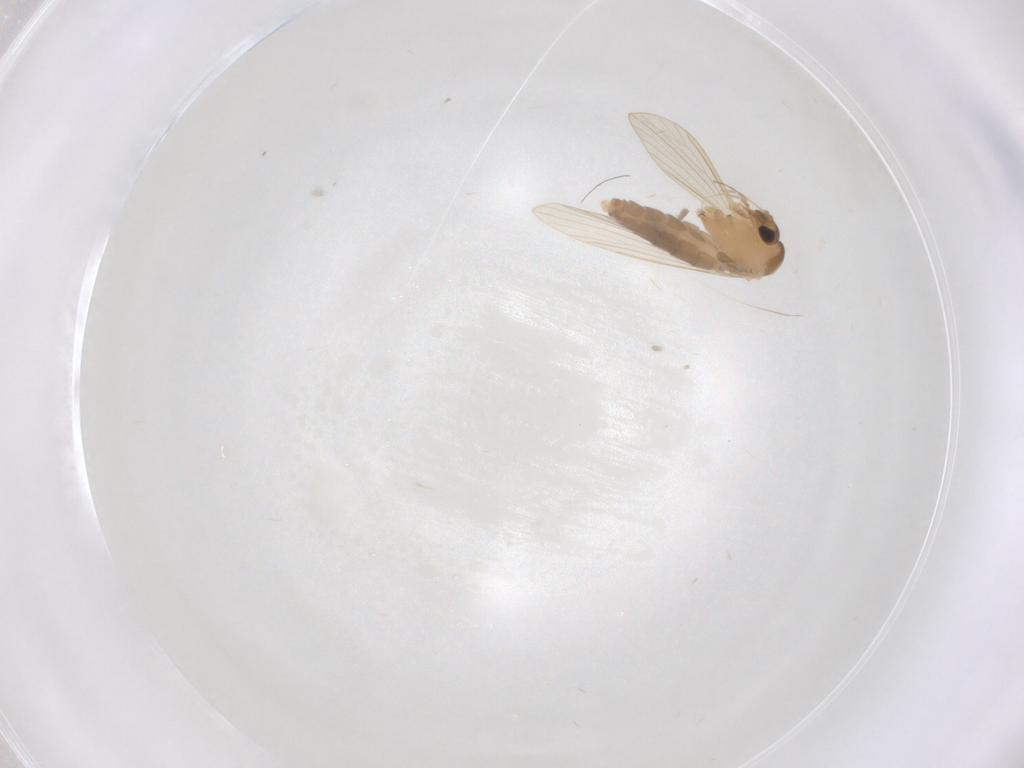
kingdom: Animalia
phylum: Arthropoda
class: Insecta
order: Diptera
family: Psychodidae
